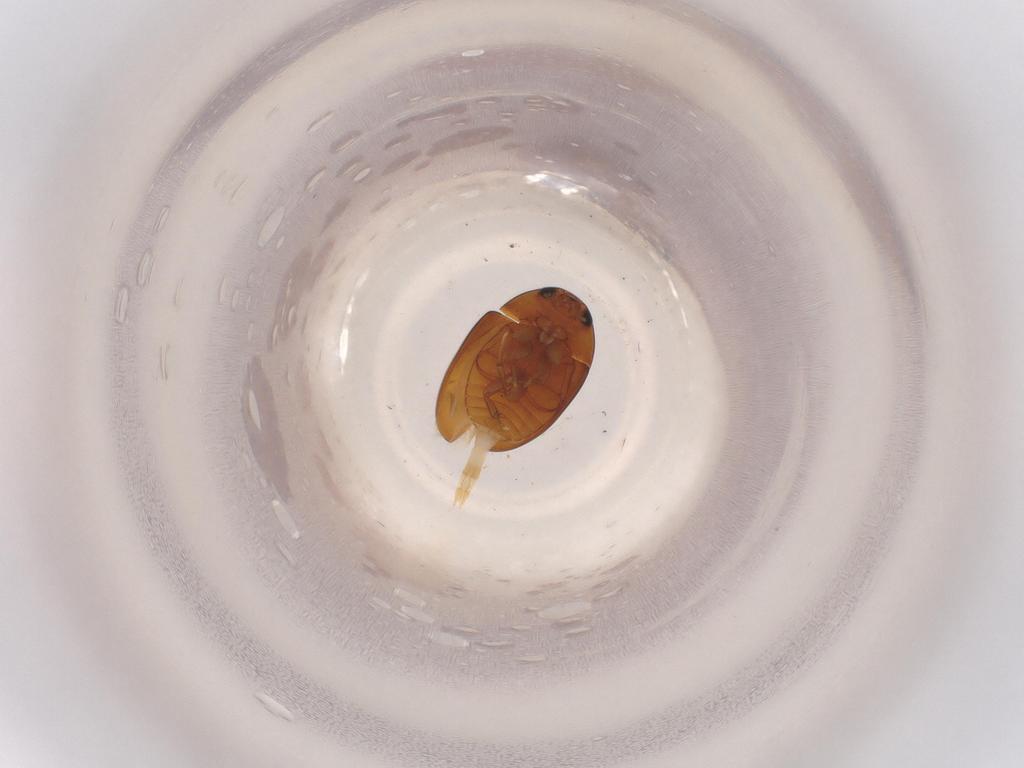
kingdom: Animalia
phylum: Arthropoda
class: Insecta
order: Coleoptera
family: Phalacridae
